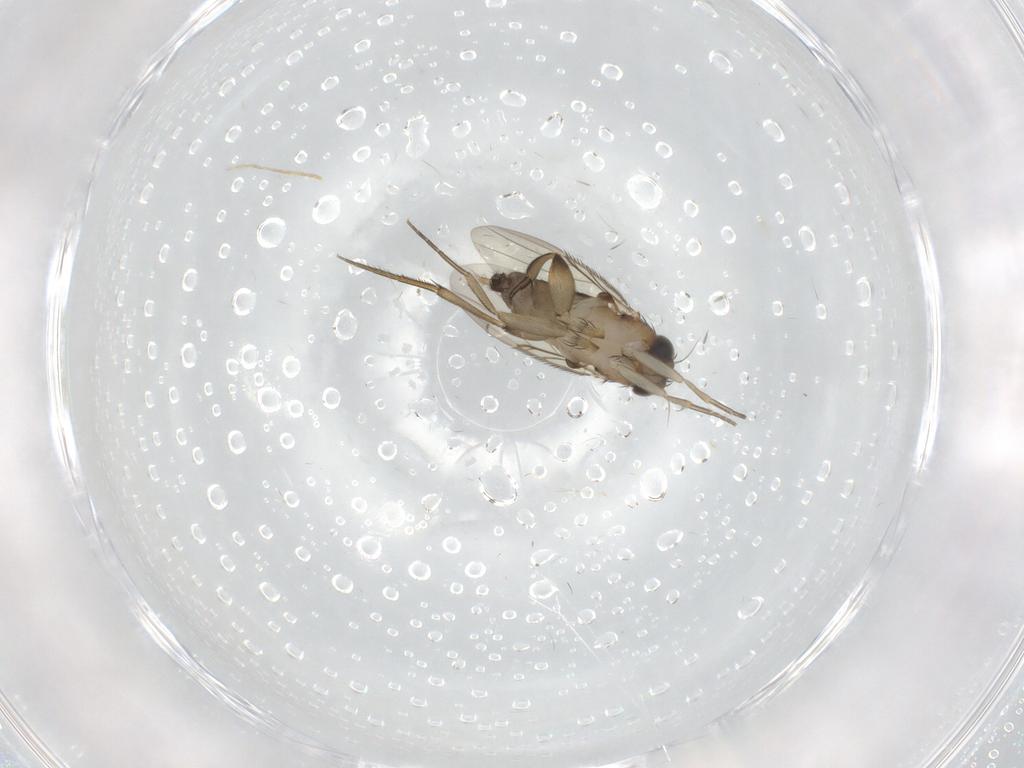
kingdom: Animalia
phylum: Arthropoda
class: Insecta
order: Diptera
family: Phoridae
